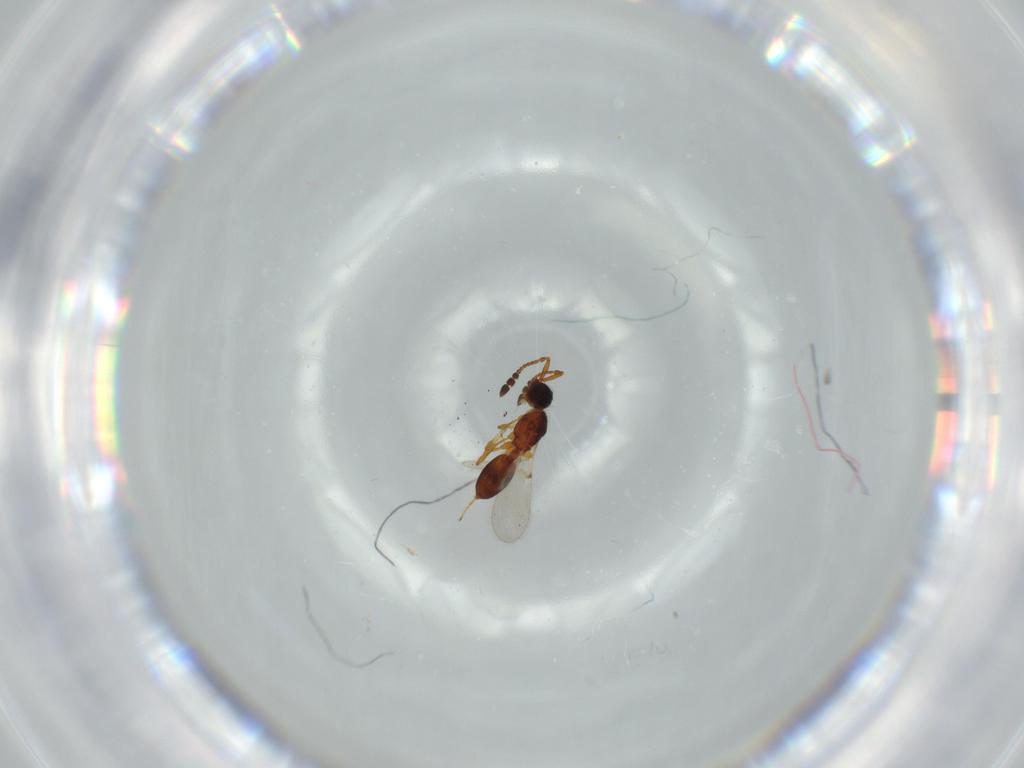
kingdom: Animalia
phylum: Arthropoda
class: Insecta
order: Hymenoptera
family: Diapriidae
